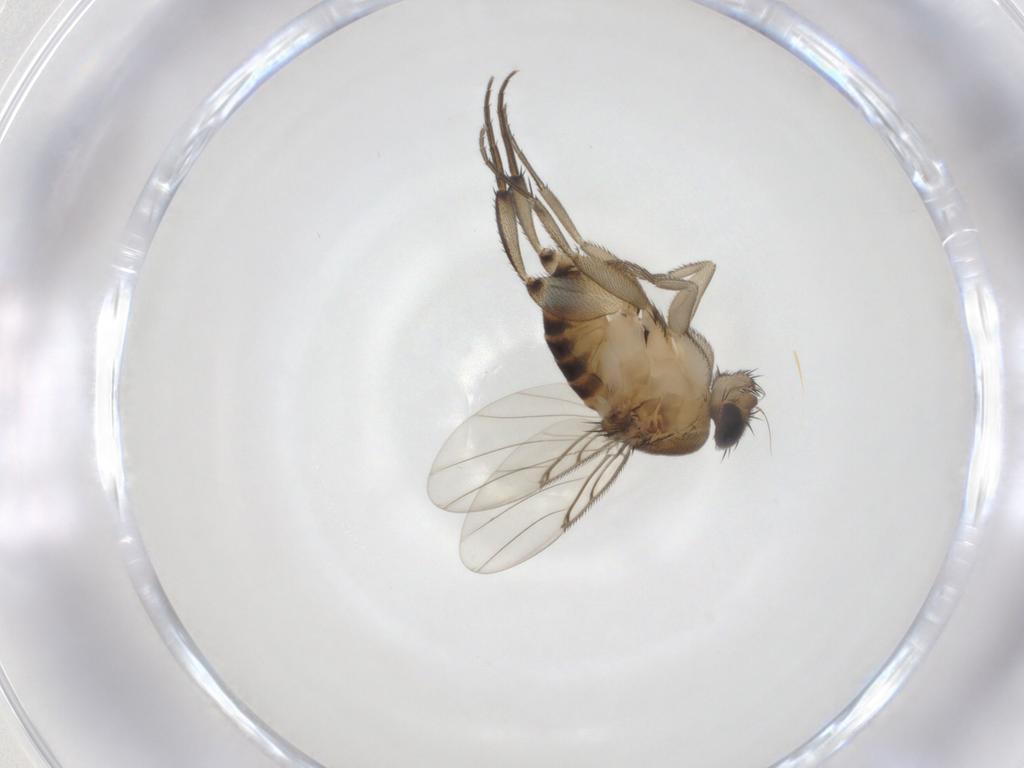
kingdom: Animalia
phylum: Arthropoda
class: Insecta
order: Diptera
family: Phoridae
